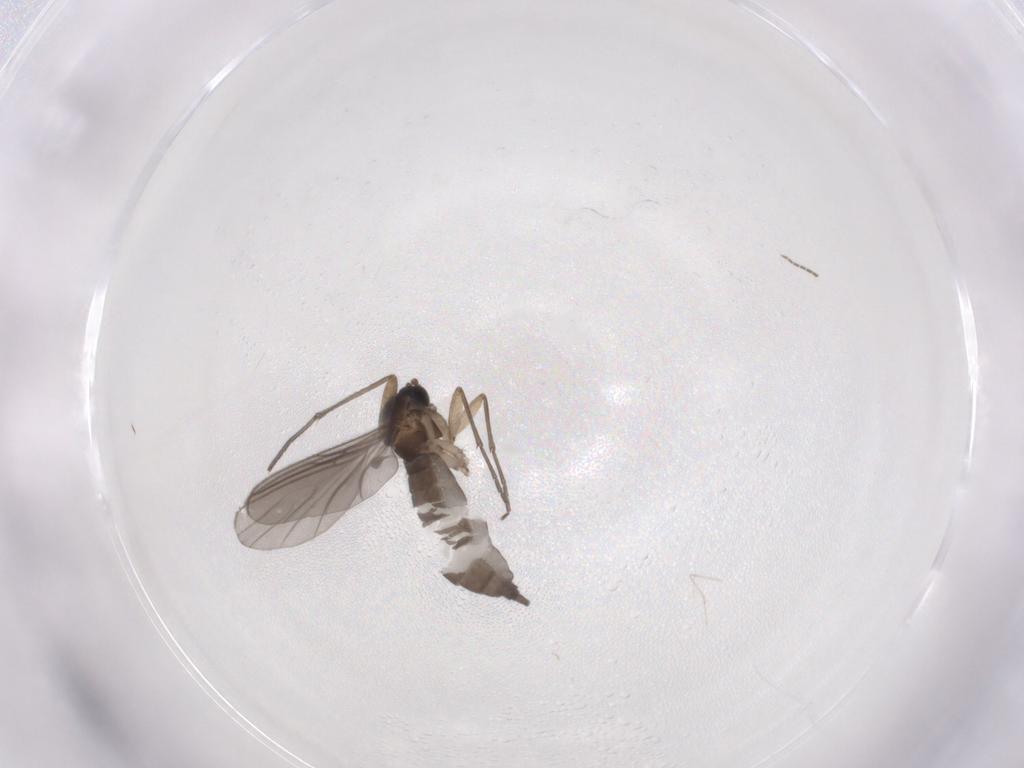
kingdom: Animalia
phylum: Arthropoda
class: Insecta
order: Diptera
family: Sciaridae
